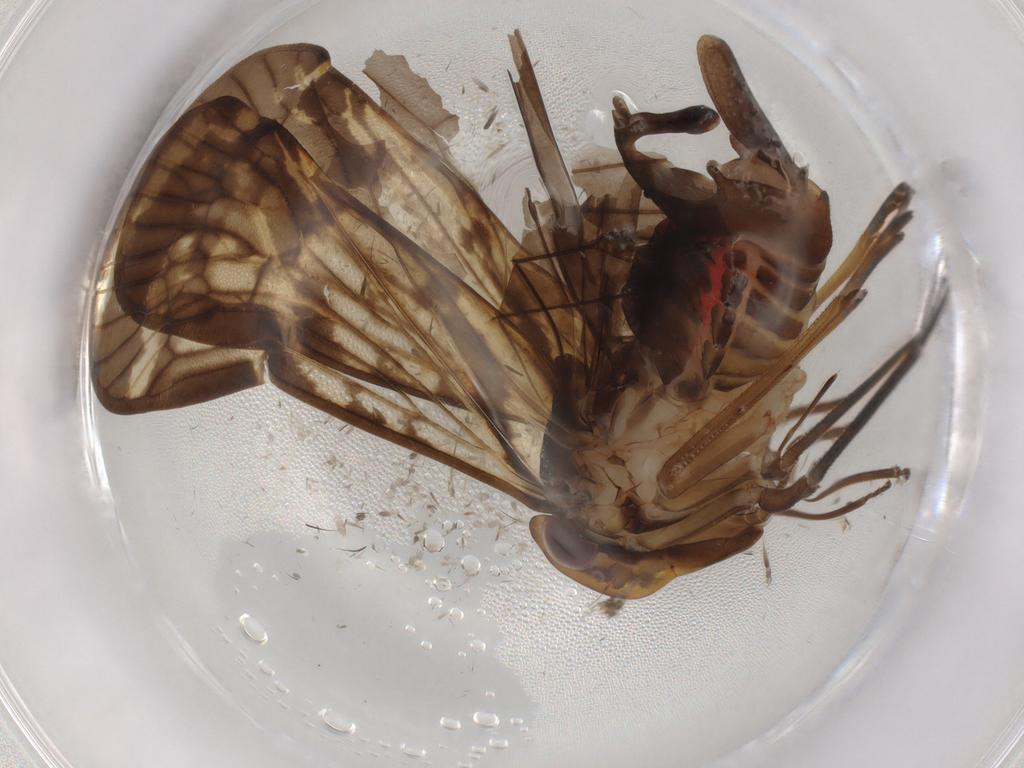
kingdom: Animalia
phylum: Arthropoda
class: Insecta
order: Hemiptera
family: Cixiidae
